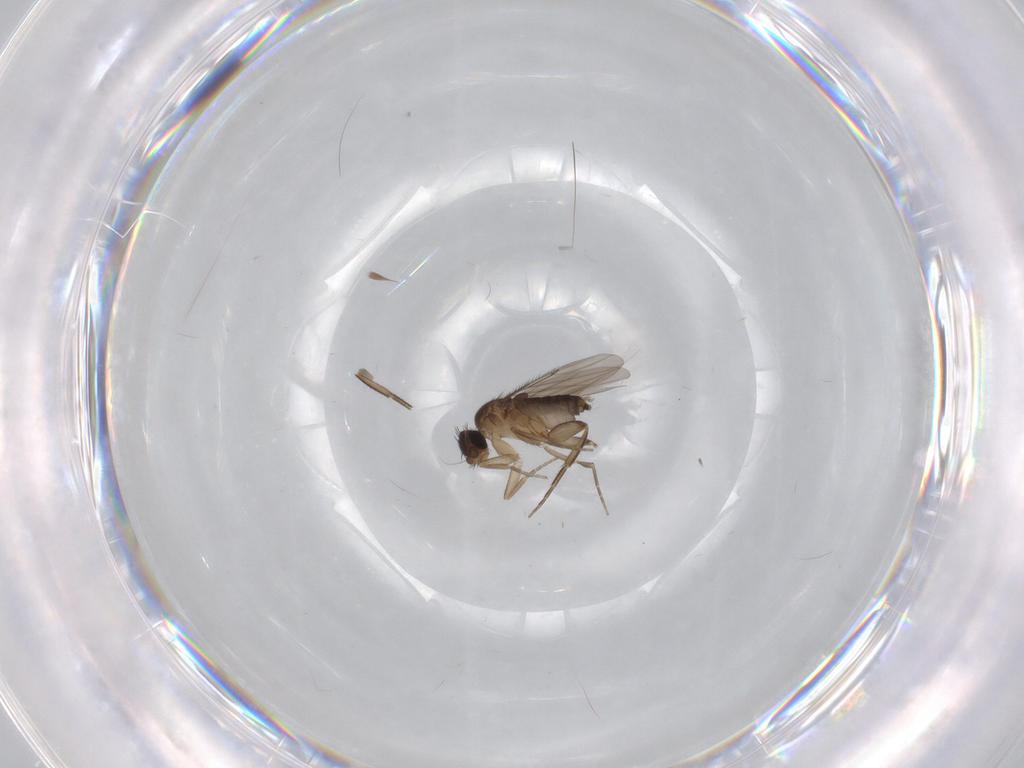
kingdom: Animalia
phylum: Arthropoda
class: Insecta
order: Diptera
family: Phoridae
